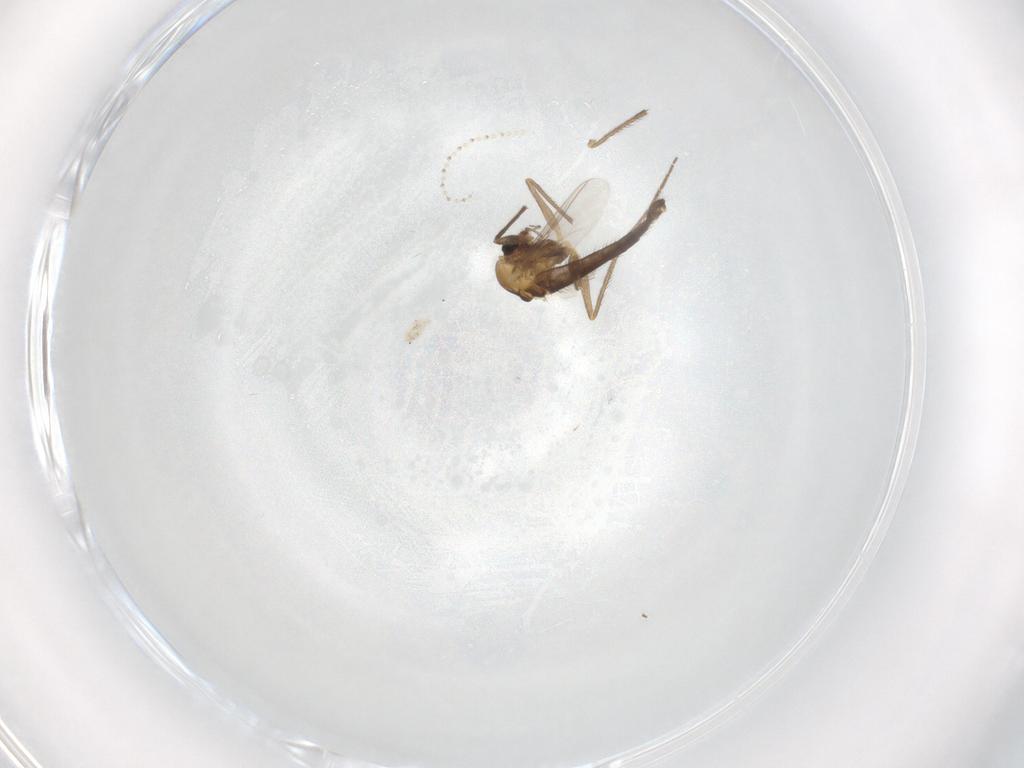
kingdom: Animalia
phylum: Arthropoda
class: Insecta
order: Diptera
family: Chironomidae
